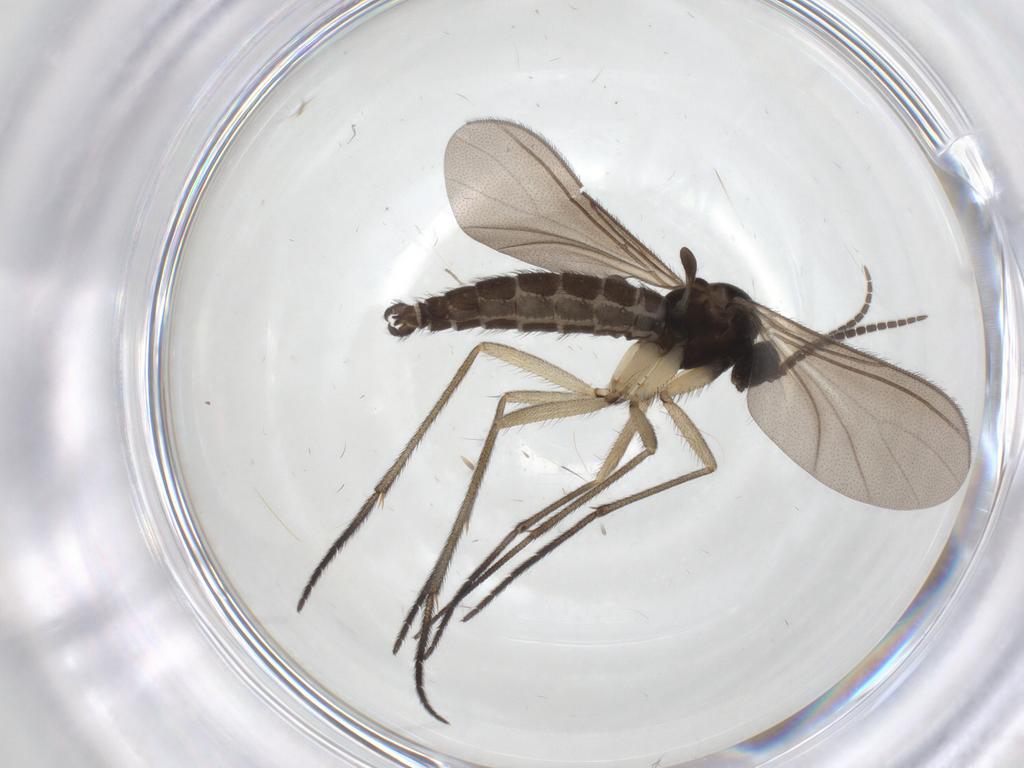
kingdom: Animalia
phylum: Arthropoda
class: Insecta
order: Diptera
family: Sciaridae
